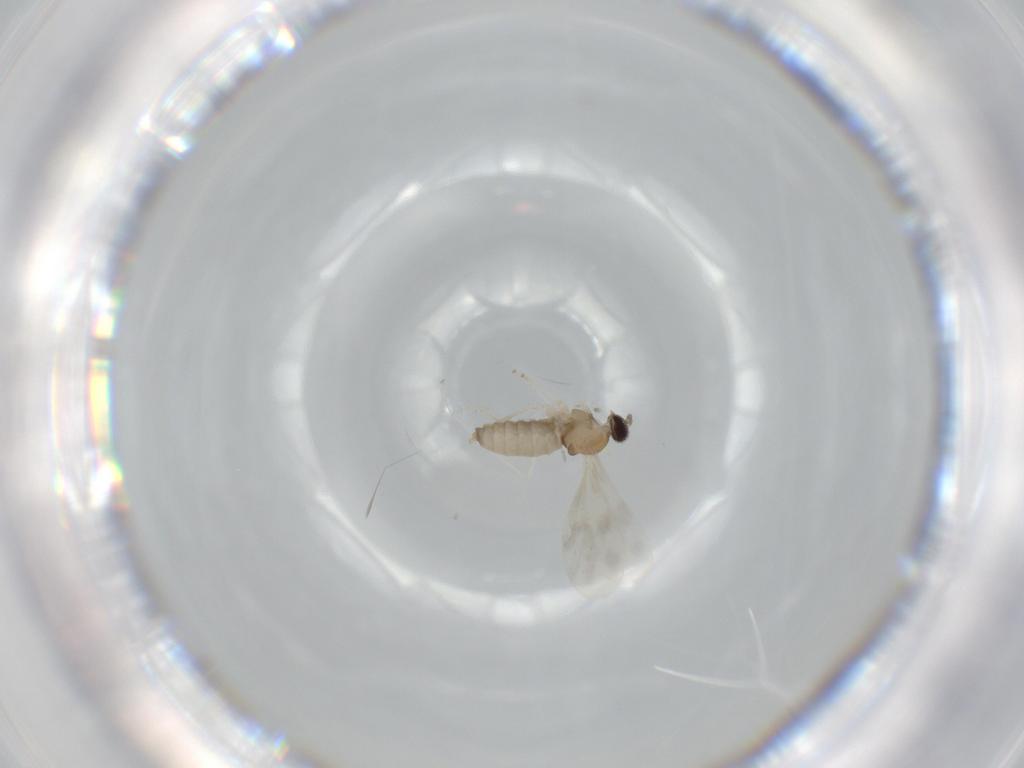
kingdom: Animalia
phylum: Arthropoda
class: Insecta
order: Diptera
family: Cecidomyiidae
